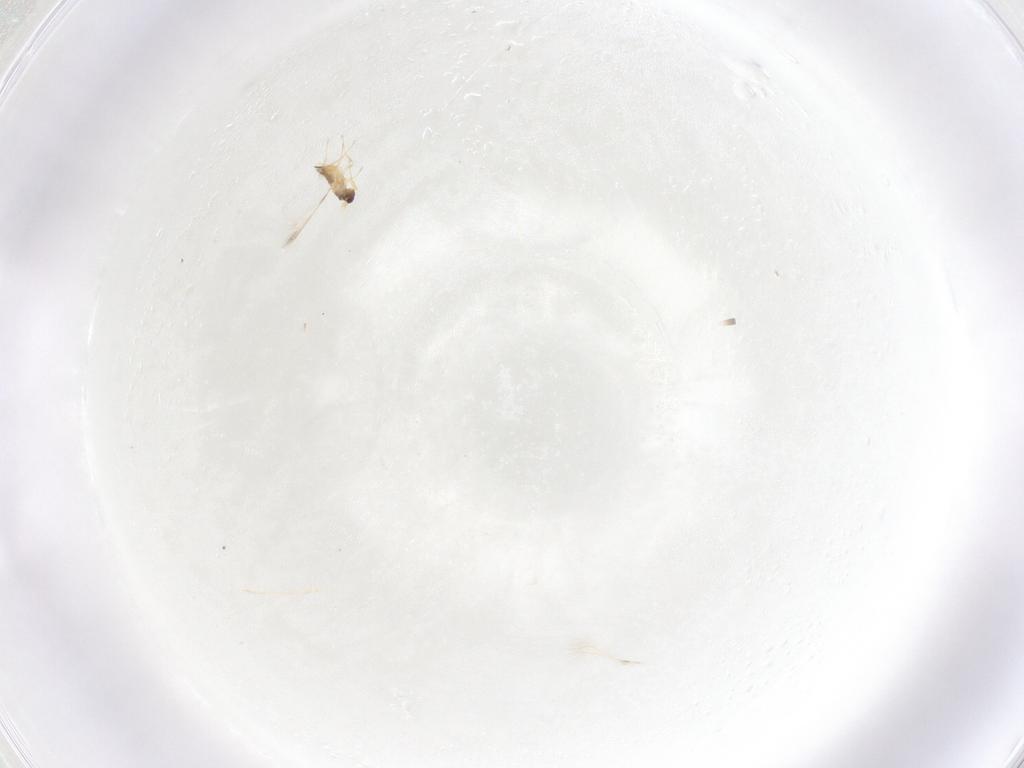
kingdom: Animalia
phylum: Arthropoda
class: Insecta
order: Hymenoptera
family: Mymaridae
